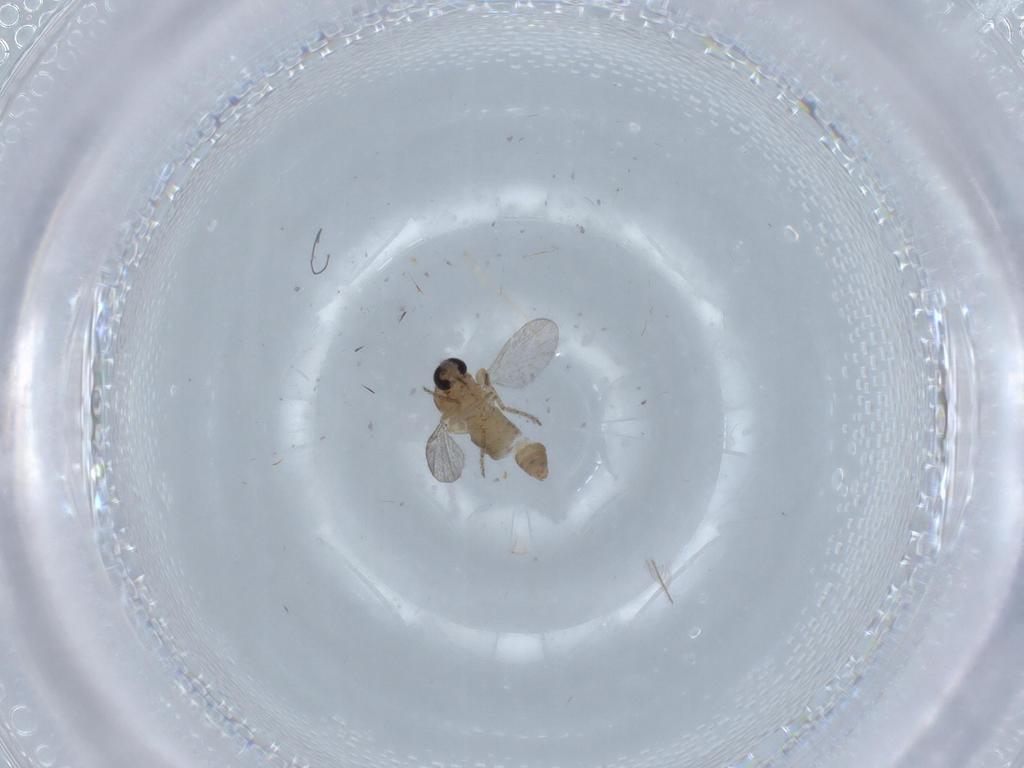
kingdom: Animalia
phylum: Arthropoda
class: Insecta
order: Diptera
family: Ceratopogonidae
